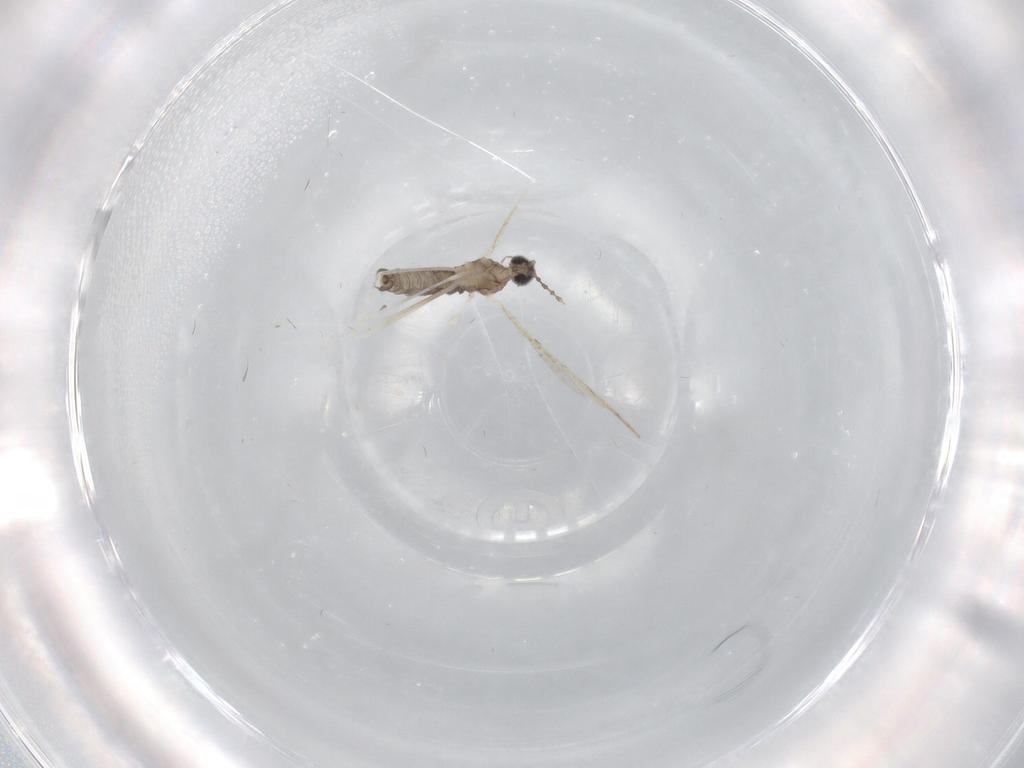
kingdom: Animalia
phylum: Arthropoda
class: Insecta
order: Diptera
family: Cecidomyiidae
